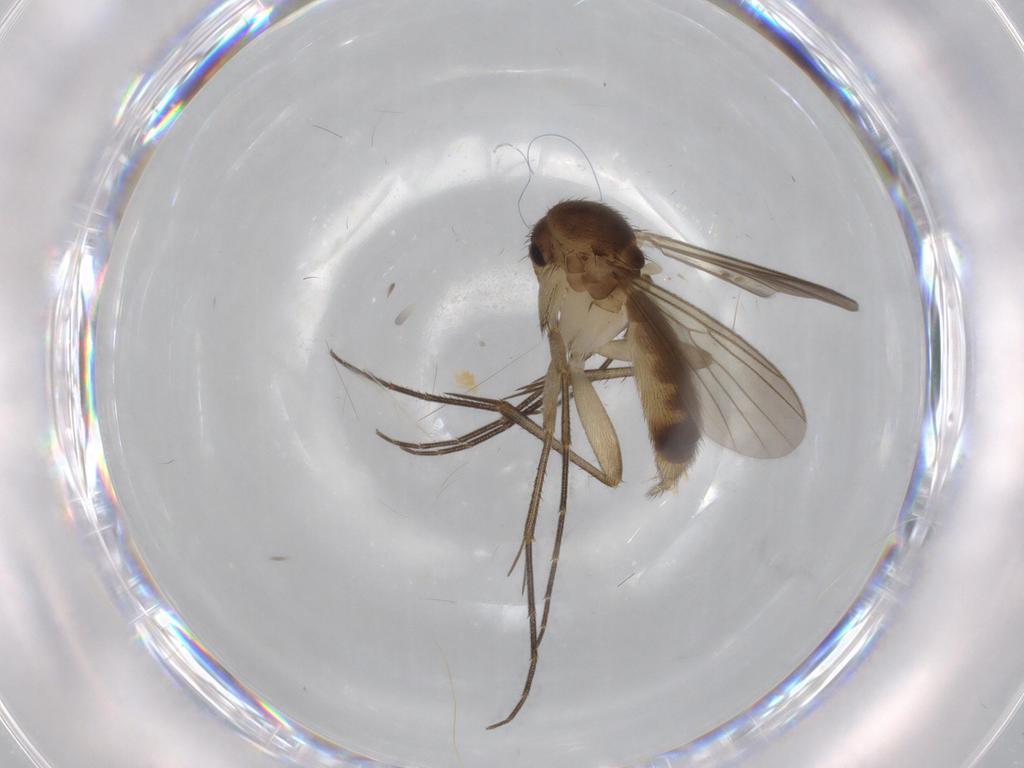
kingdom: Animalia
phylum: Arthropoda
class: Insecta
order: Diptera
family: Empididae
